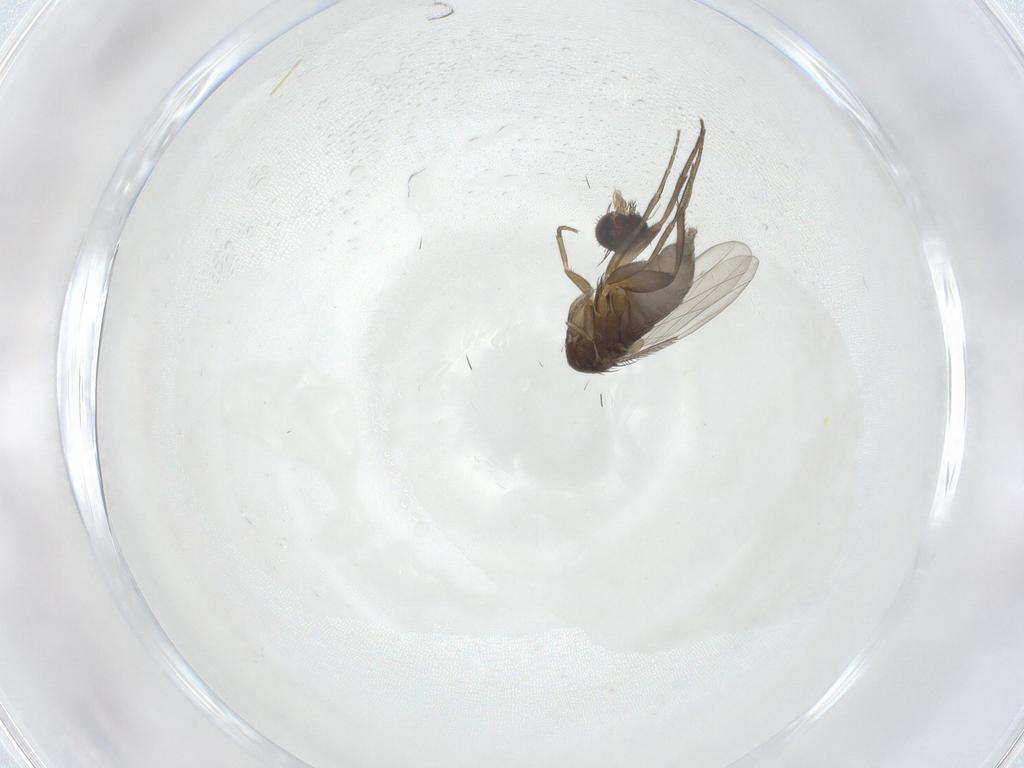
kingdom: Animalia
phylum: Arthropoda
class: Insecta
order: Diptera
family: Phoridae
